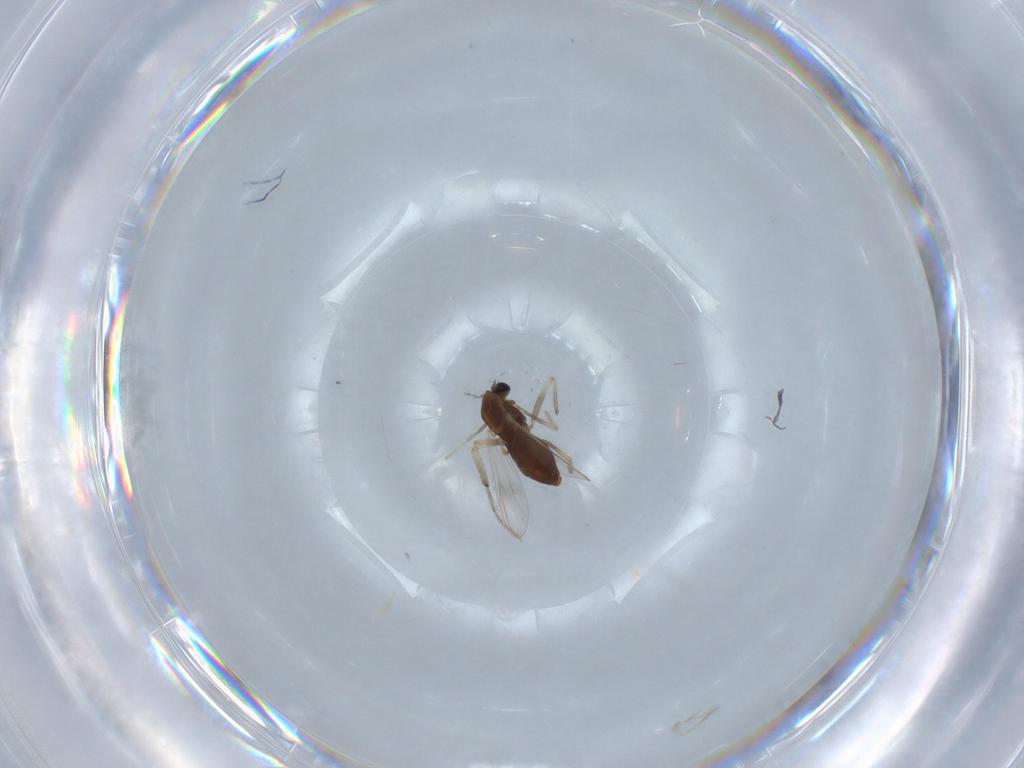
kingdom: Animalia
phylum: Arthropoda
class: Insecta
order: Diptera
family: Chironomidae
